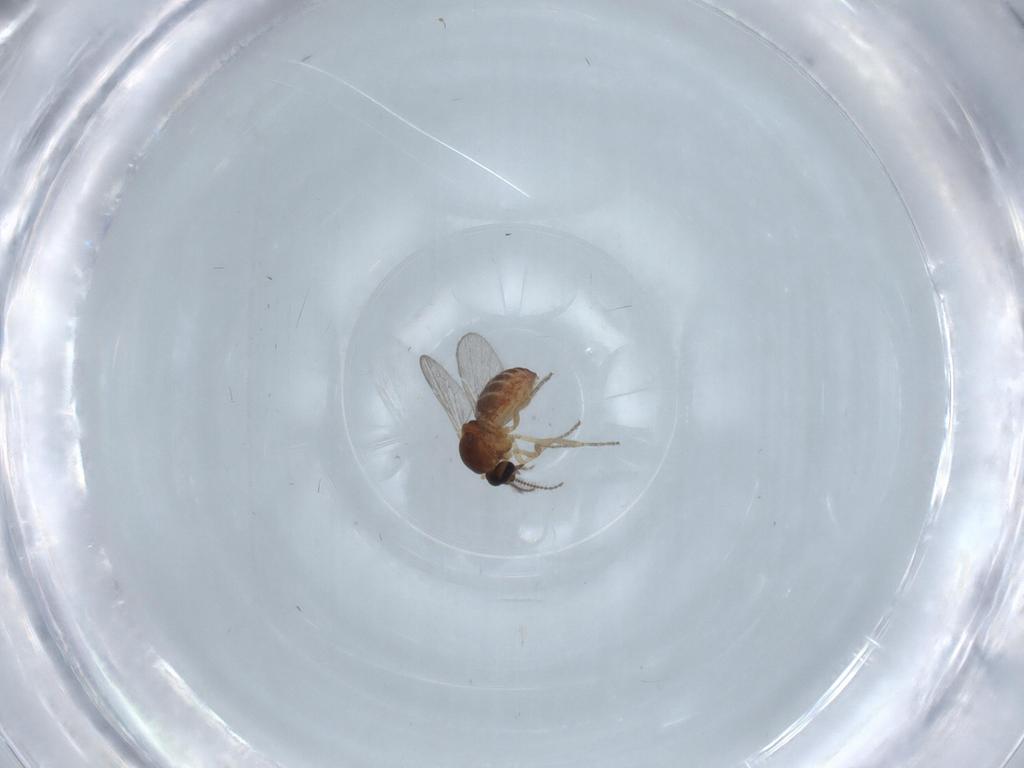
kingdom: Animalia
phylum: Arthropoda
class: Insecta
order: Diptera
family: Ceratopogonidae
